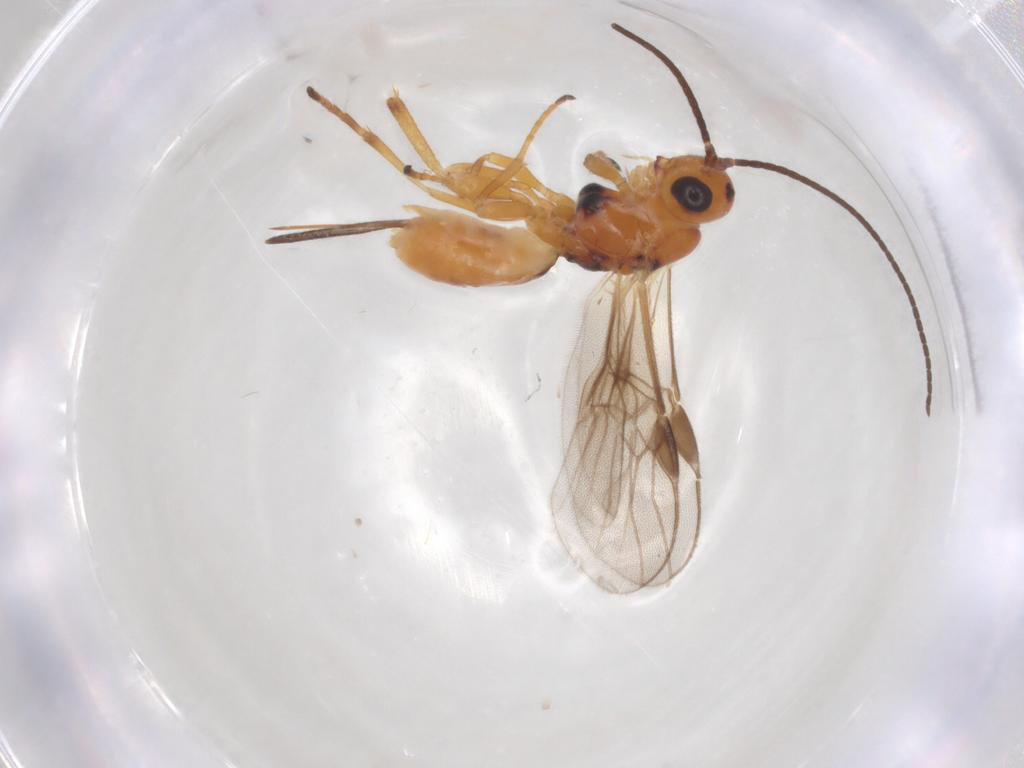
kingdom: Animalia
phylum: Arthropoda
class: Insecta
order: Hymenoptera
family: Braconidae
